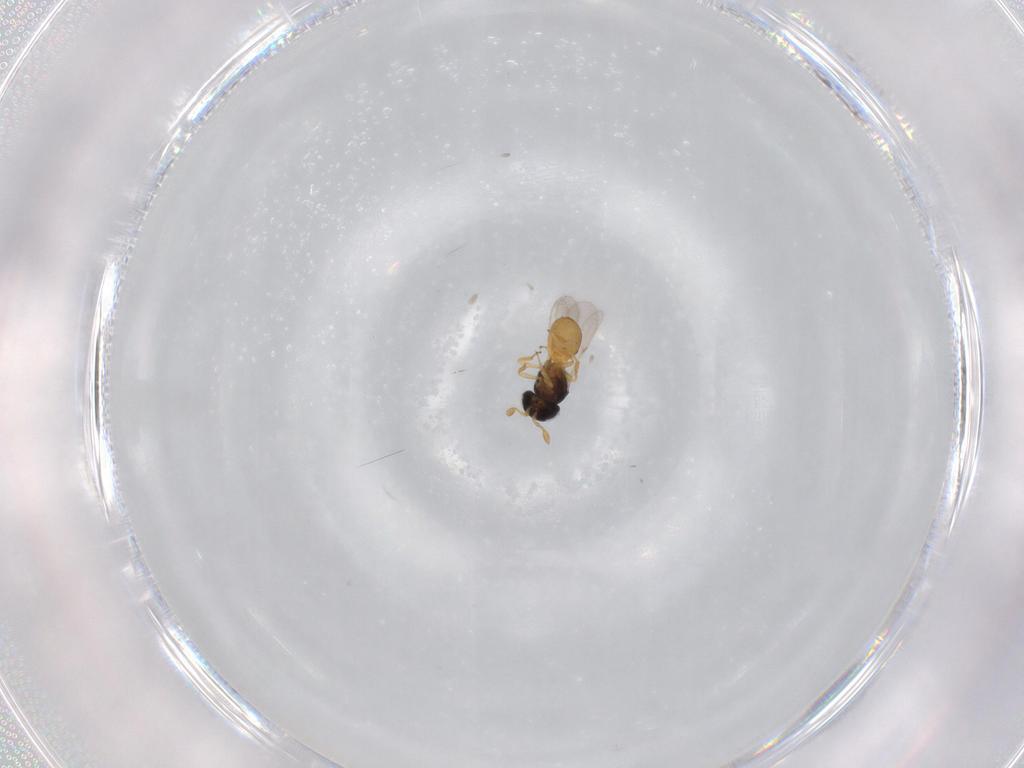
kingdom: Animalia
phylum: Arthropoda
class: Insecta
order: Hymenoptera
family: Scelionidae
